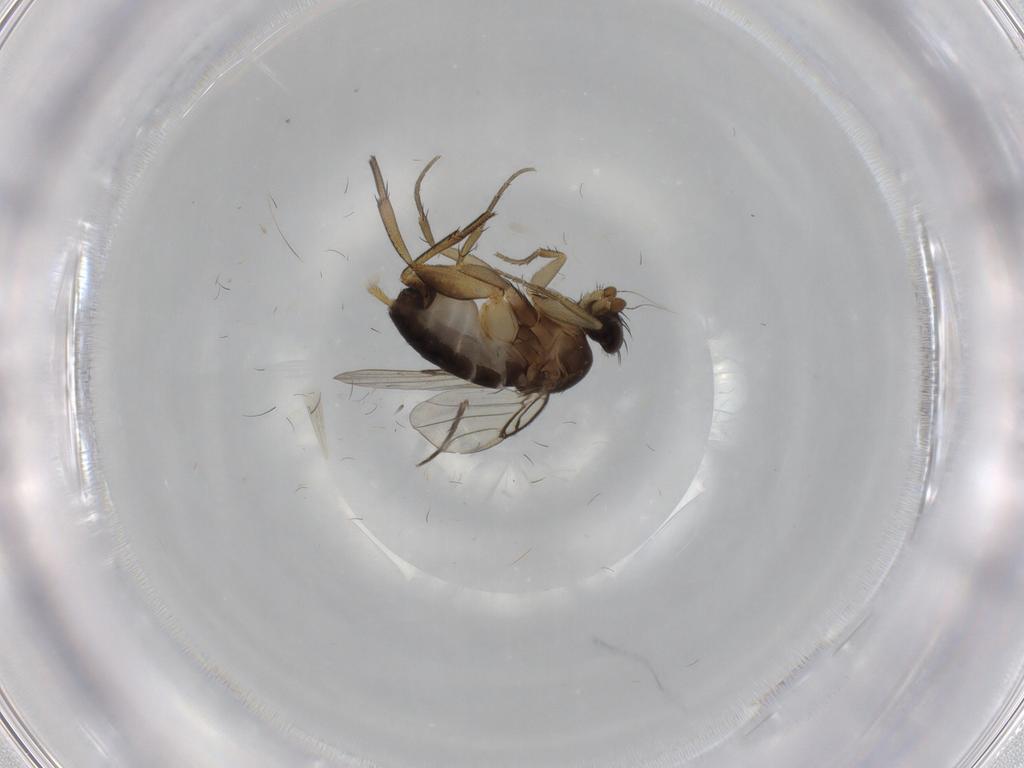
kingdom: Animalia
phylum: Arthropoda
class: Insecta
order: Diptera
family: Phoridae
